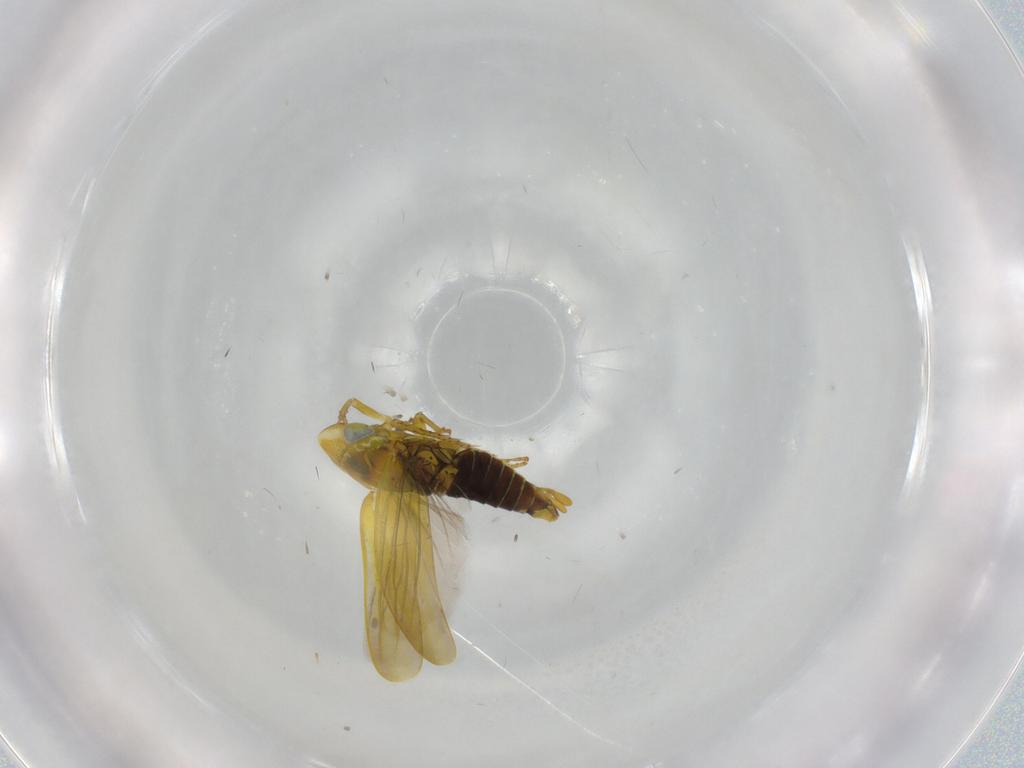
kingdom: Animalia
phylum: Arthropoda
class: Insecta
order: Hemiptera
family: Cicadellidae
